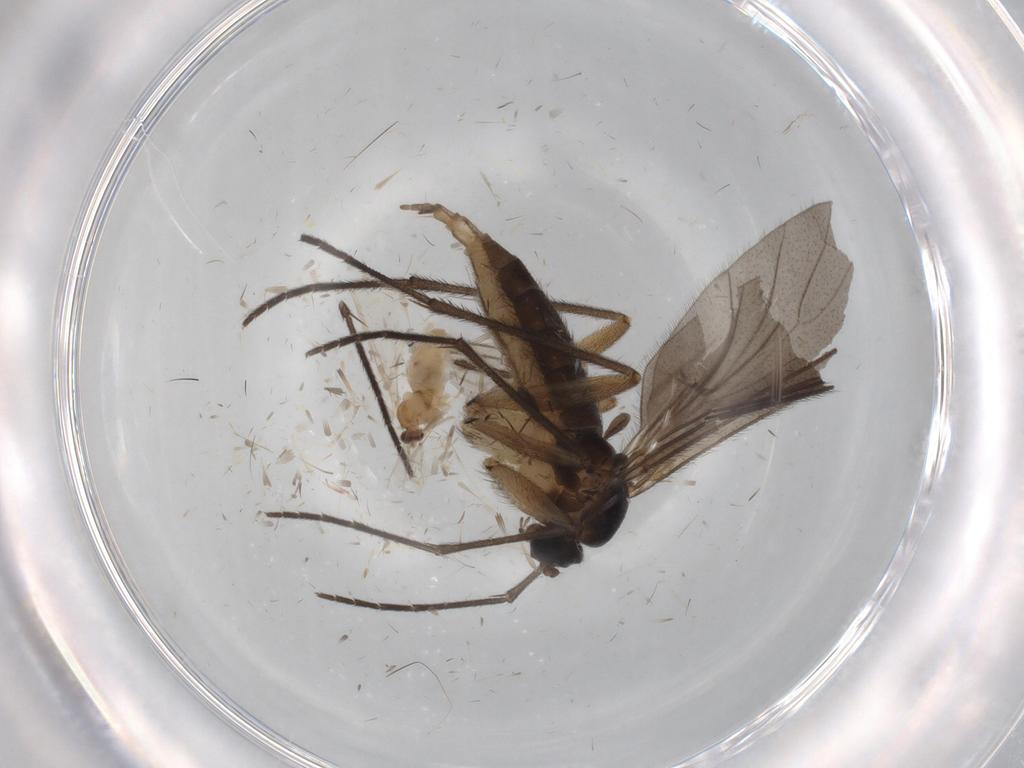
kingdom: Animalia
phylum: Arthropoda
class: Insecta
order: Diptera
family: Sciaridae
